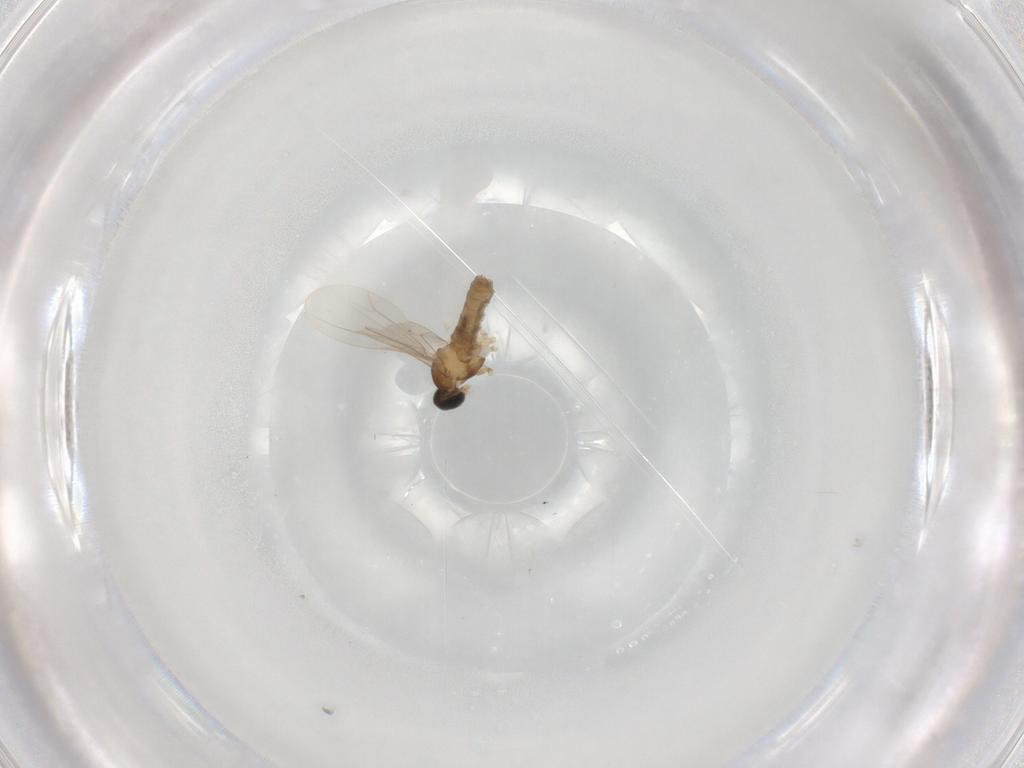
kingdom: Animalia
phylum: Arthropoda
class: Insecta
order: Diptera
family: Cecidomyiidae
